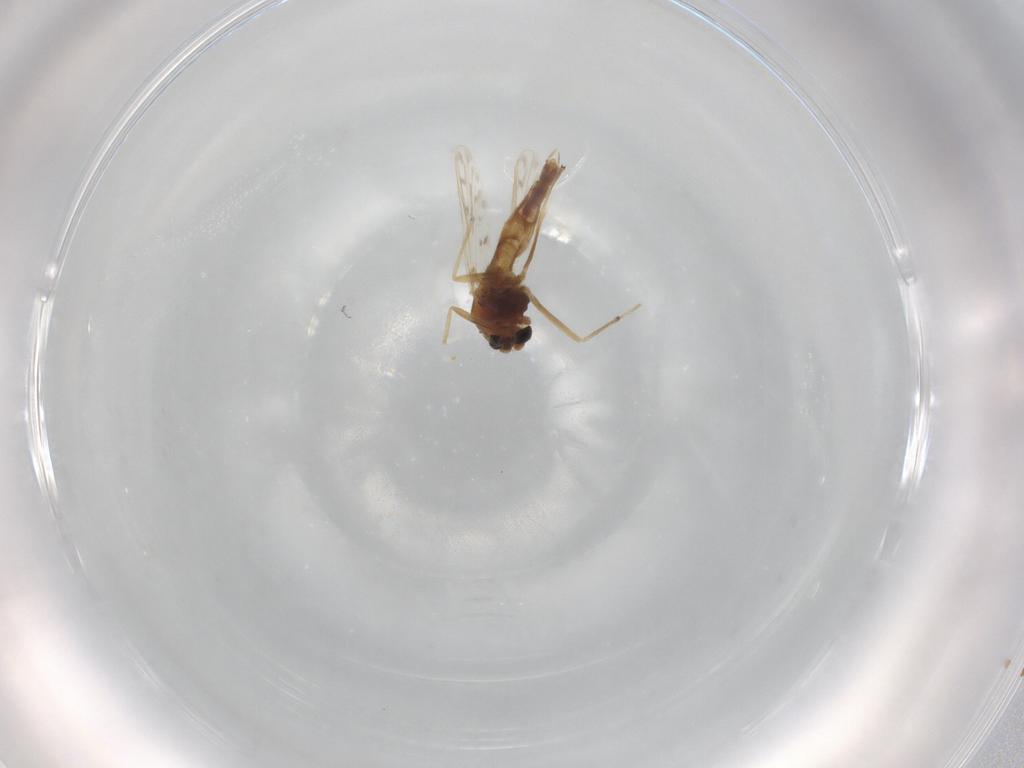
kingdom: Animalia
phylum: Arthropoda
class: Insecta
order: Diptera
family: Chironomidae
